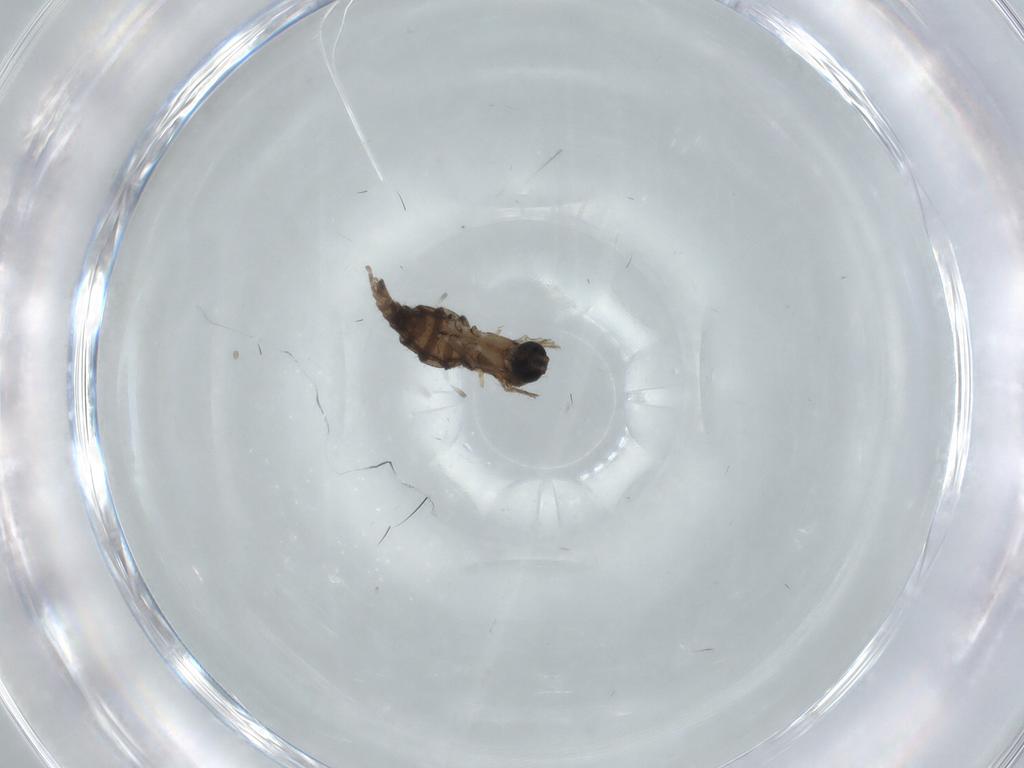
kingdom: Animalia
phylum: Arthropoda
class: Insecta
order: Diptera
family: Sciaridae
